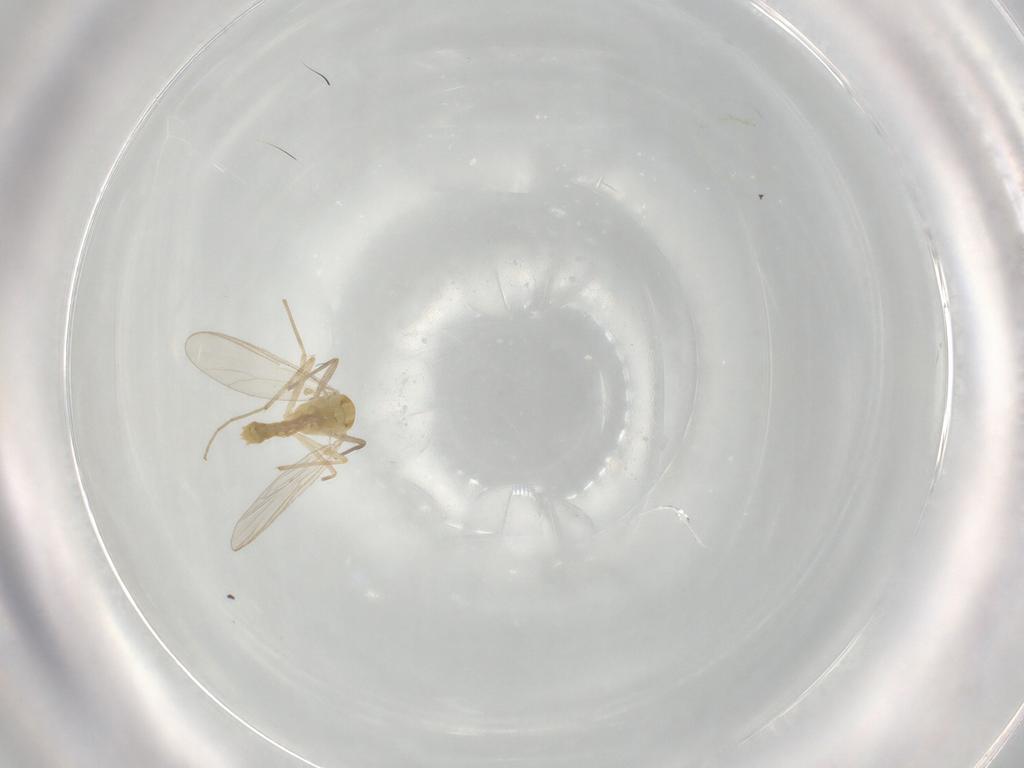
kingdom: Animalia
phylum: Arthropoda
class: Insecta
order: Diptera
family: Chironomidae
